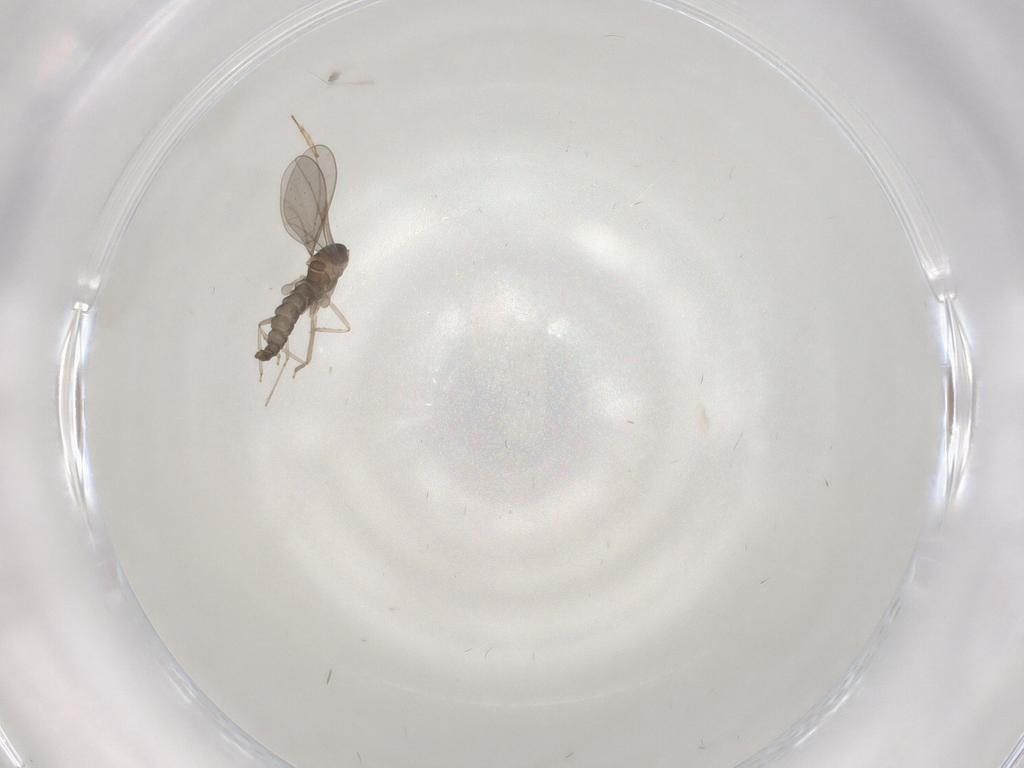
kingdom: Animalia
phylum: Arthropoda
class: Insecta
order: Diptera
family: Cecidomyiidae
